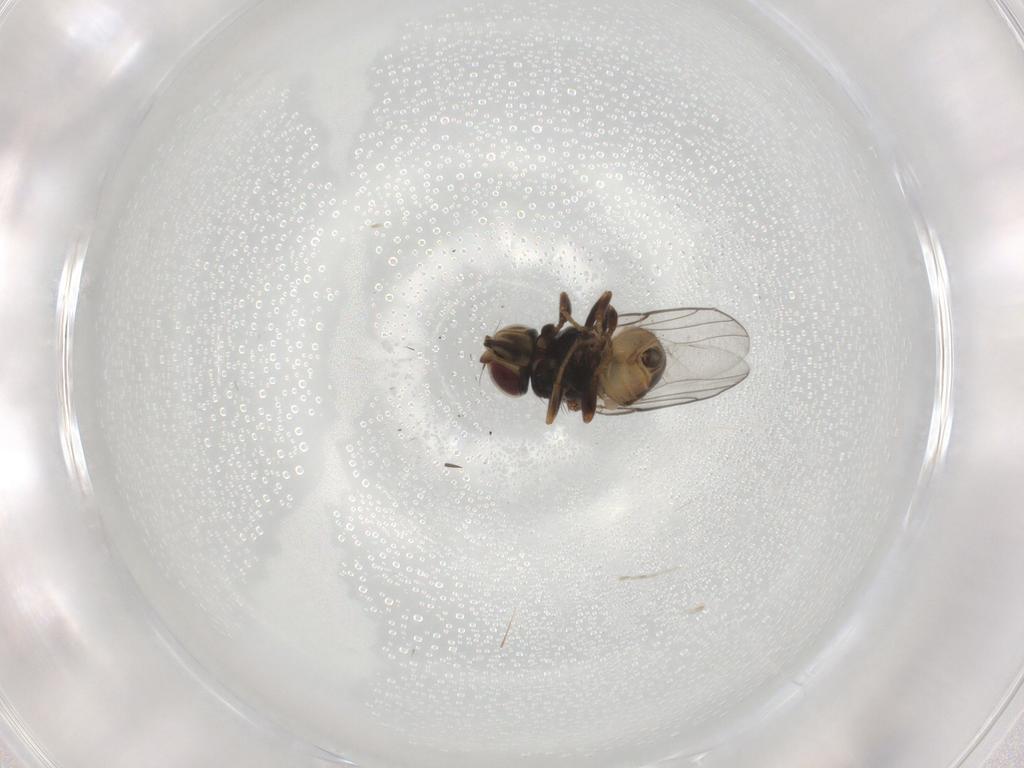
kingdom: Animalia
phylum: Arthropoda
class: Insecta
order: Diptera
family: Chloropidae
